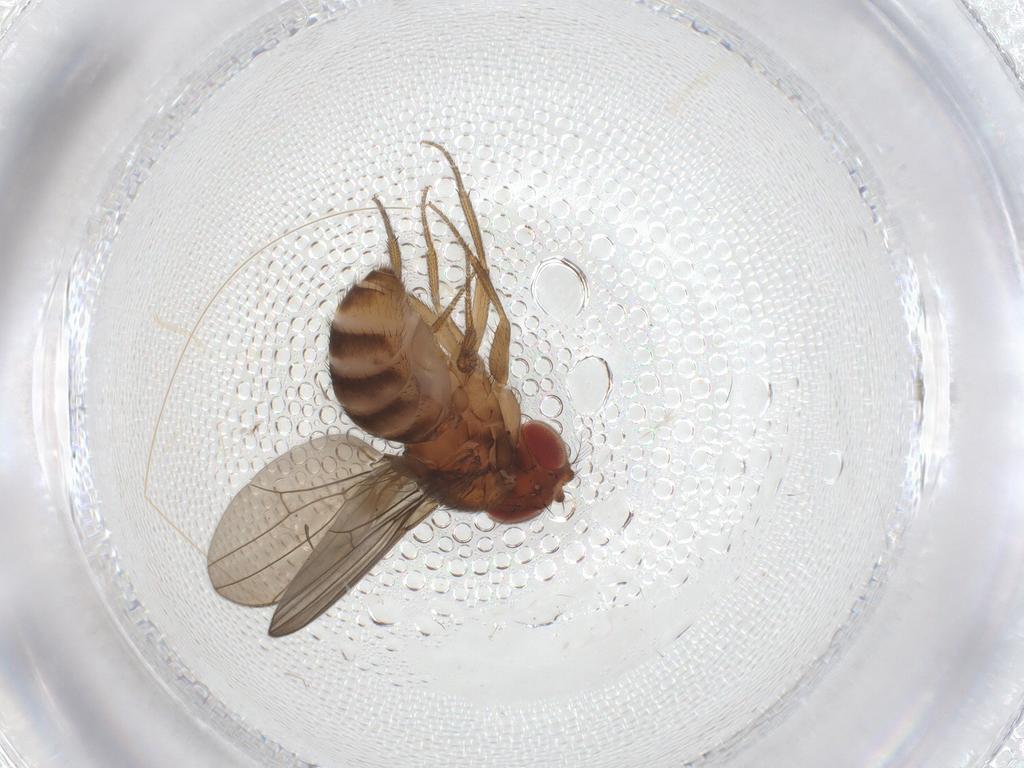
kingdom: Animalia
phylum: Arthropoda
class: Insecta
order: Diptera
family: Drosophilidae
